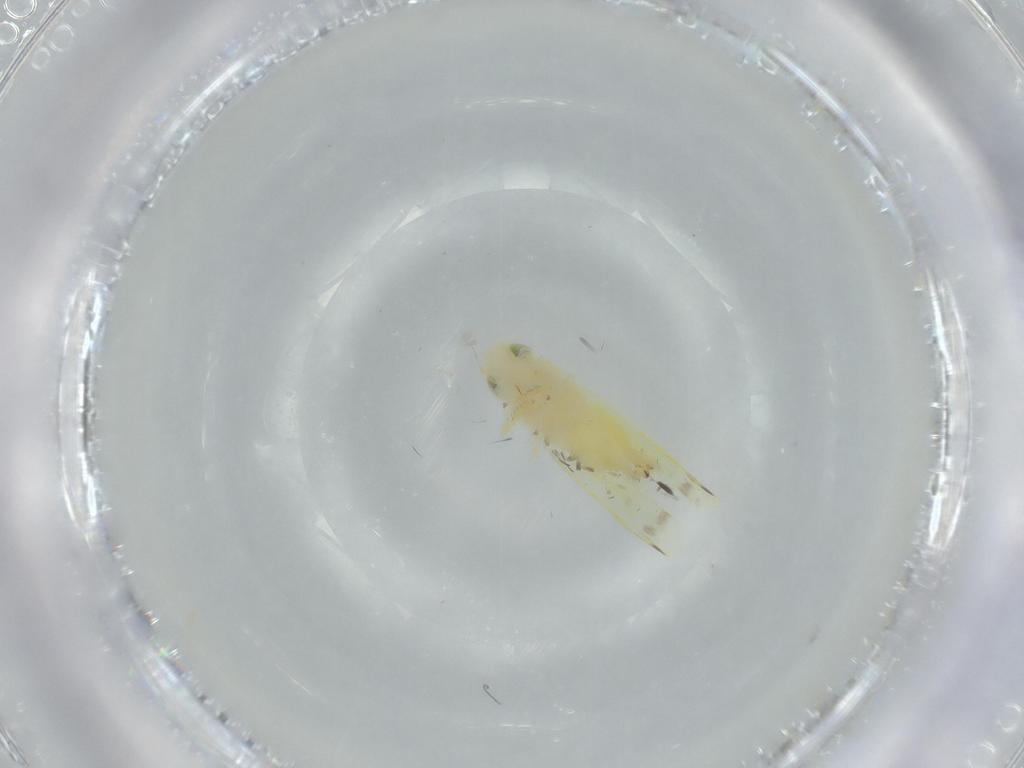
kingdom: Animalia
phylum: Arthropoda
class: Insecta
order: Hemiptera
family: Cicadellidae
